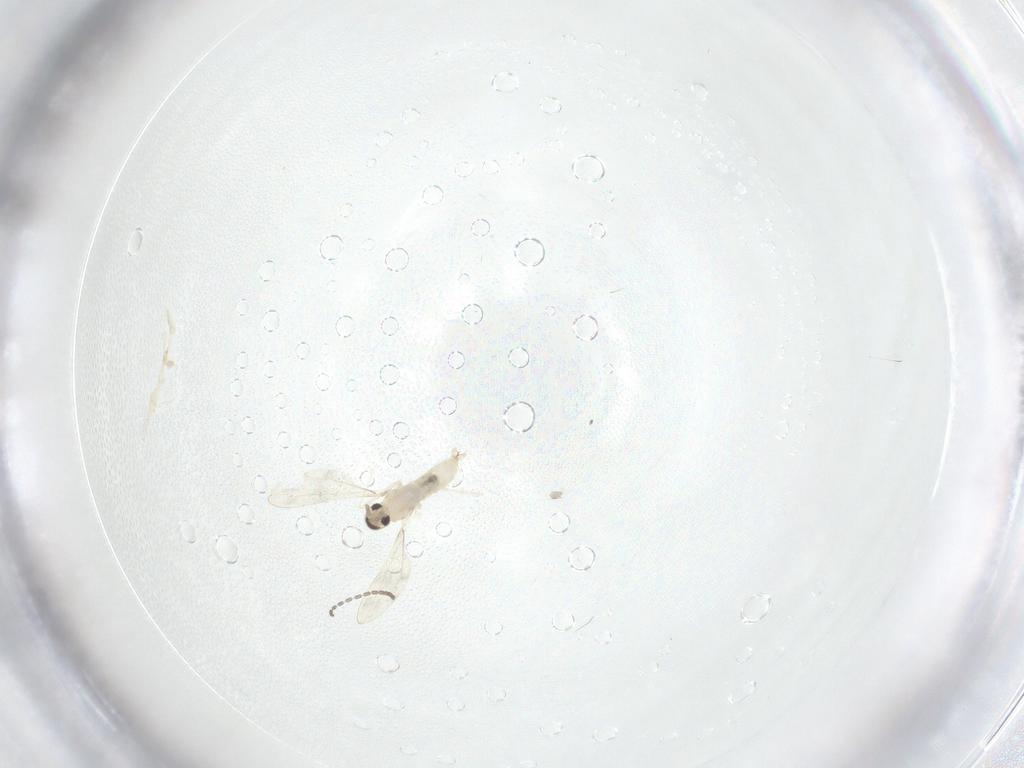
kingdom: Animalia
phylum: Arthropoda
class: Insecta
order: Diptera
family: Cecidomyiidae
